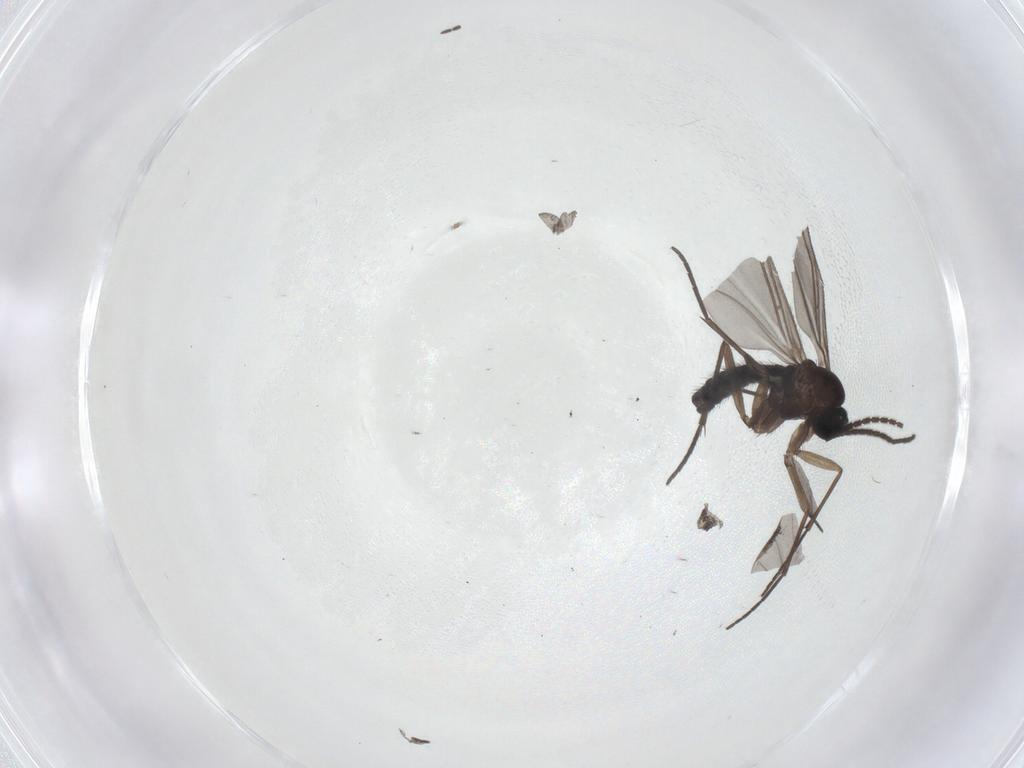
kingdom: Animalia
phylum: Arthropoda
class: Insecta
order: Diptera
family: Sciaridae
